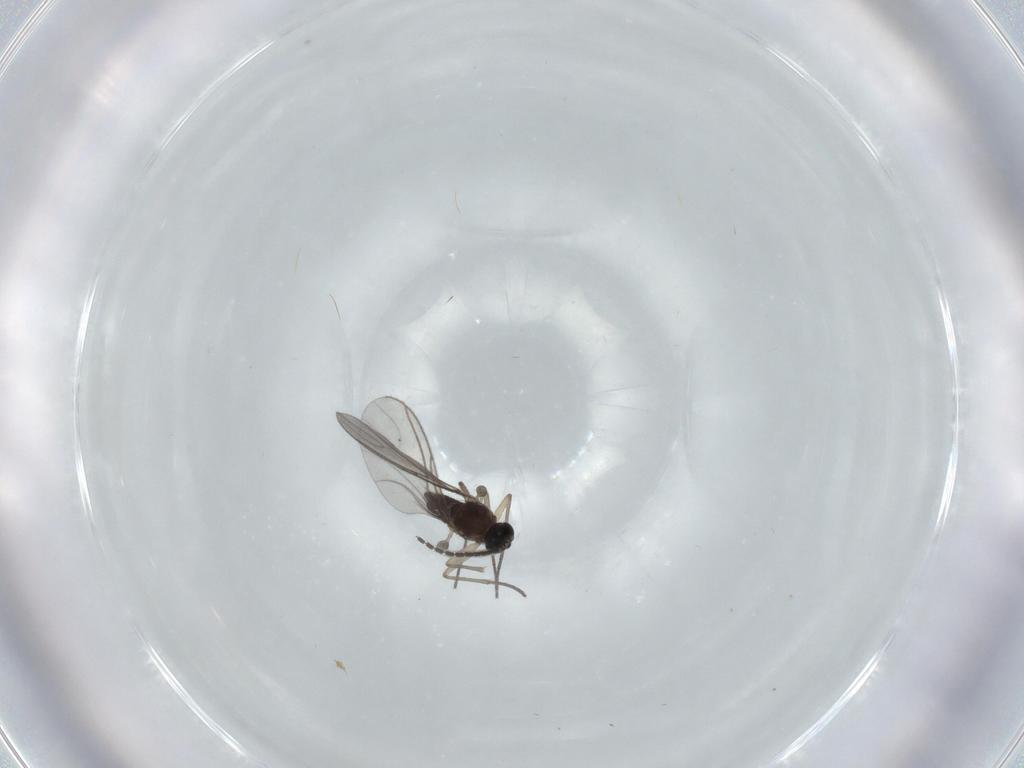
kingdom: Animalia
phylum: Arthropoda
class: Insecta
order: Diptera
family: Sciaridae
